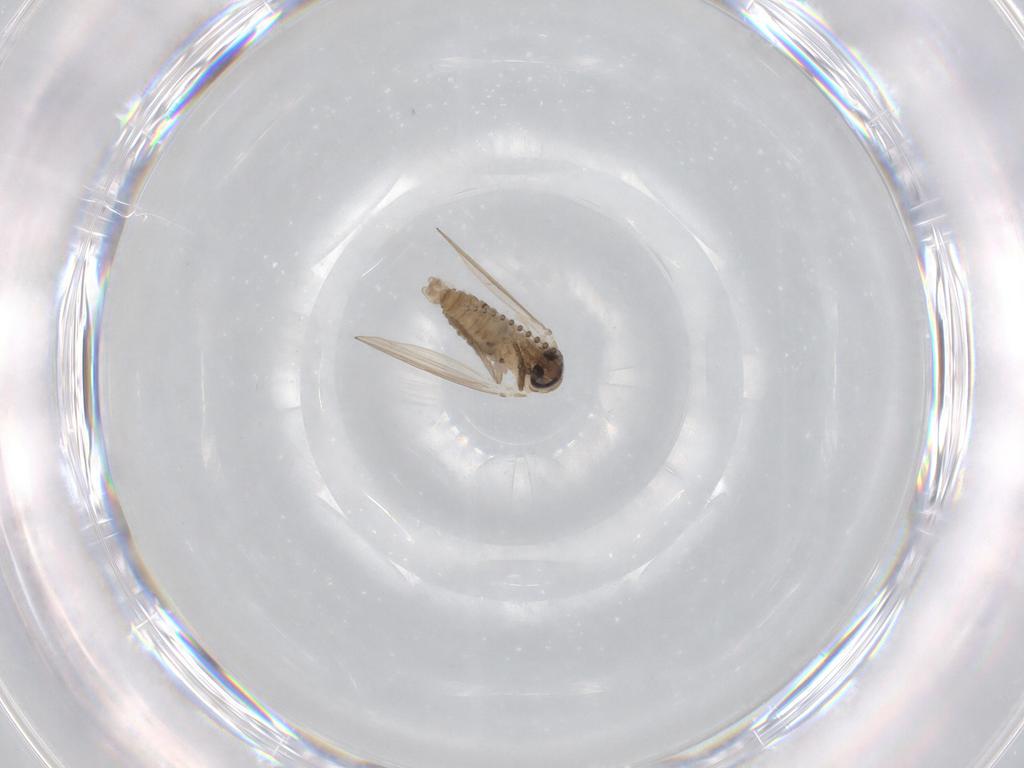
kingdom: Animalia
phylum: Arthropoda
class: Insecta
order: Diptera
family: Psychodidae
